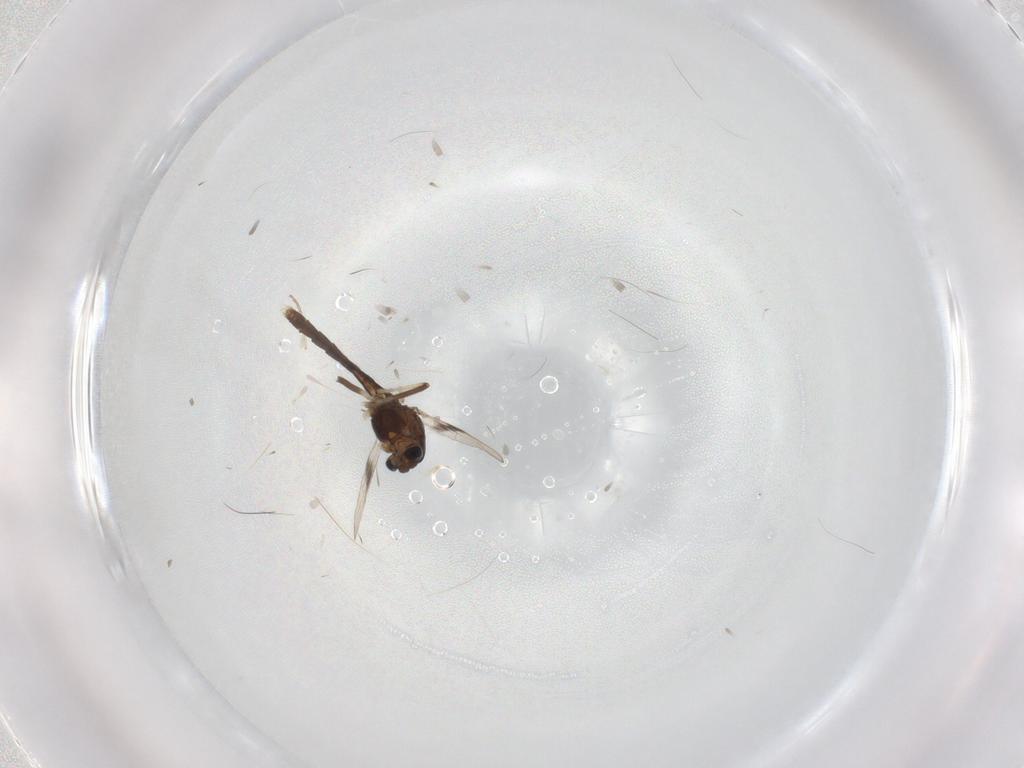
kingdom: Animalia
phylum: Arthropoda
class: Insecta
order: Diptera
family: Chironomidae
